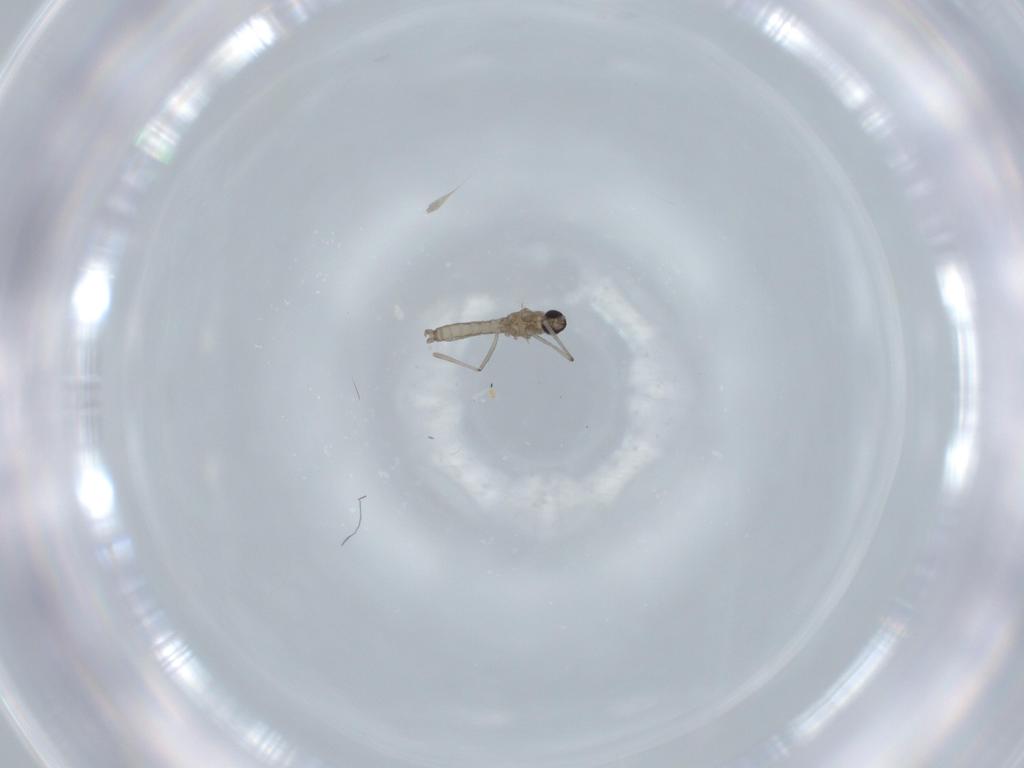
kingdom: Animalia
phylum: Arthropoda
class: Insecta
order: Diptera
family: Cecidomyiidae
